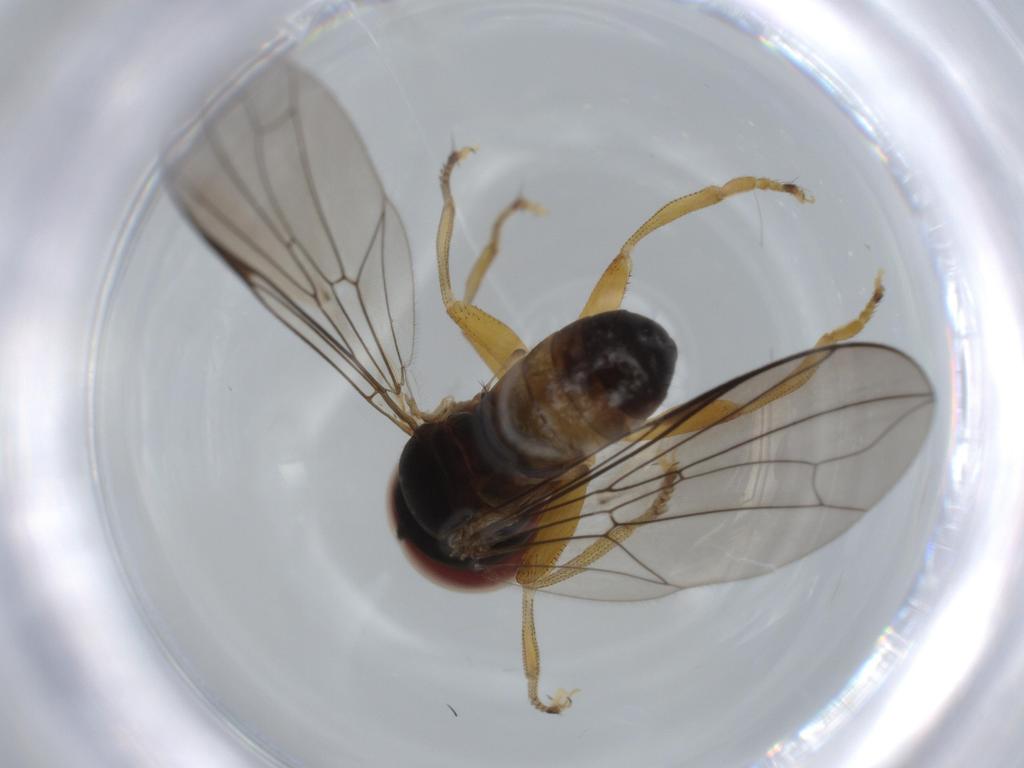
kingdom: Animalia
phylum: Arthropoda
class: Insecta
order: Diptera
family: Pipunculidae
